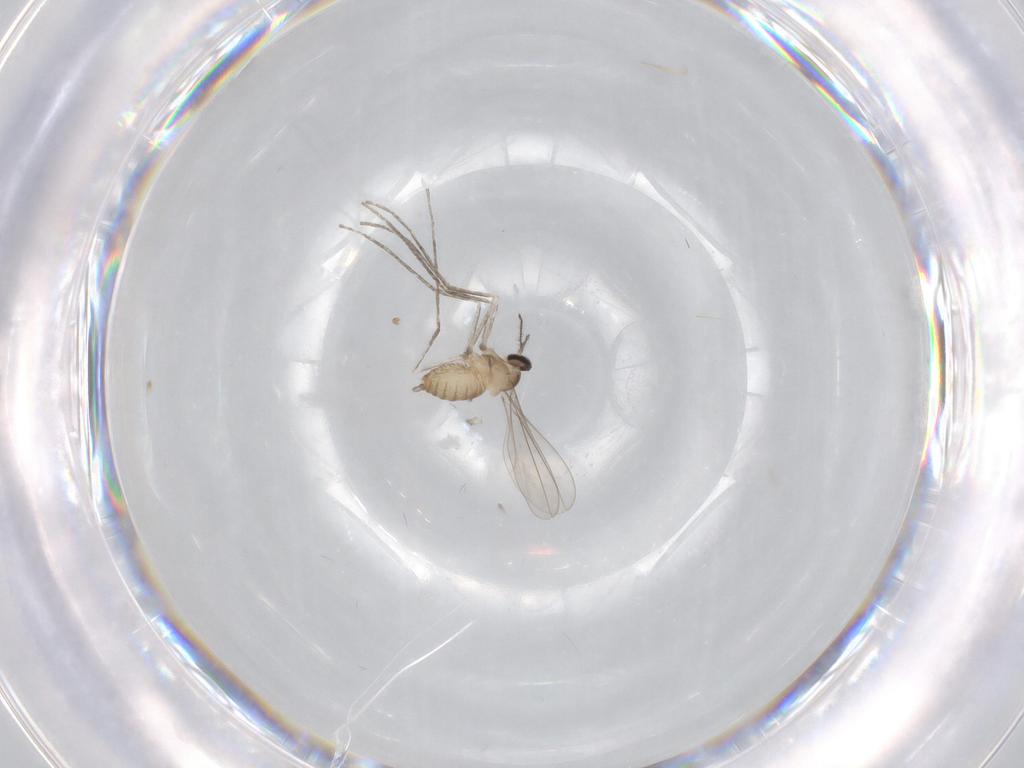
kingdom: Animalia
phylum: Arthropoda
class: Insecta
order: Diptera
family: Cecidomyiidae
